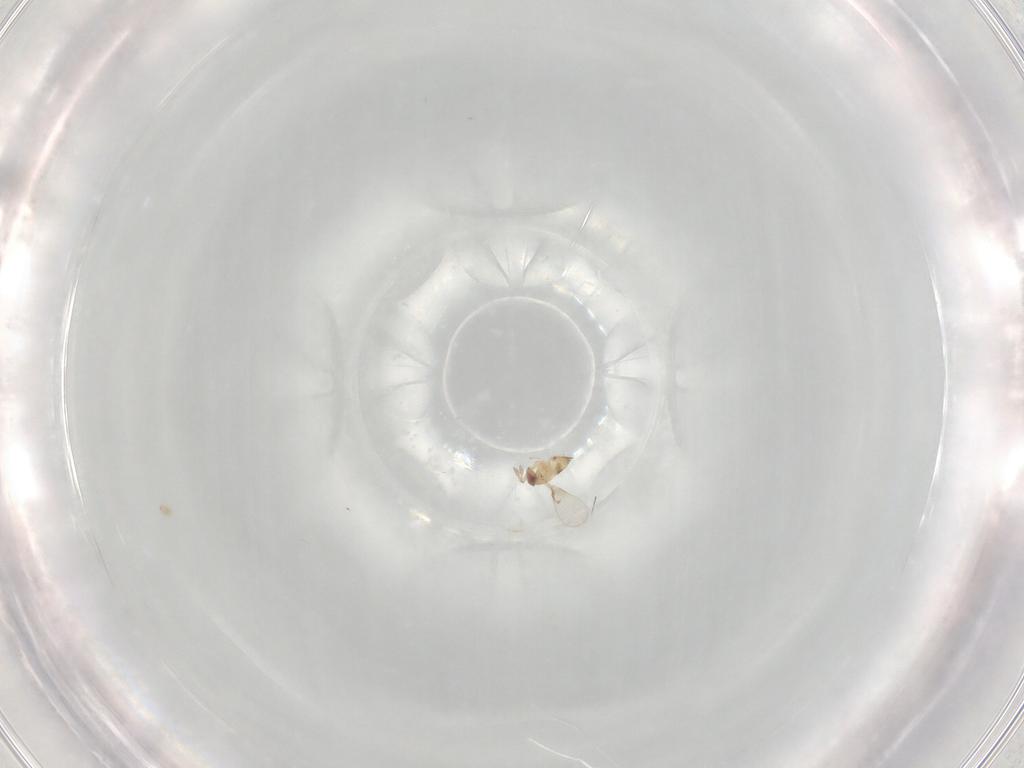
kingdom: Animalia
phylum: Arthropoda
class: Insecta
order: Hymenoptera
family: Trichogrammatidae
